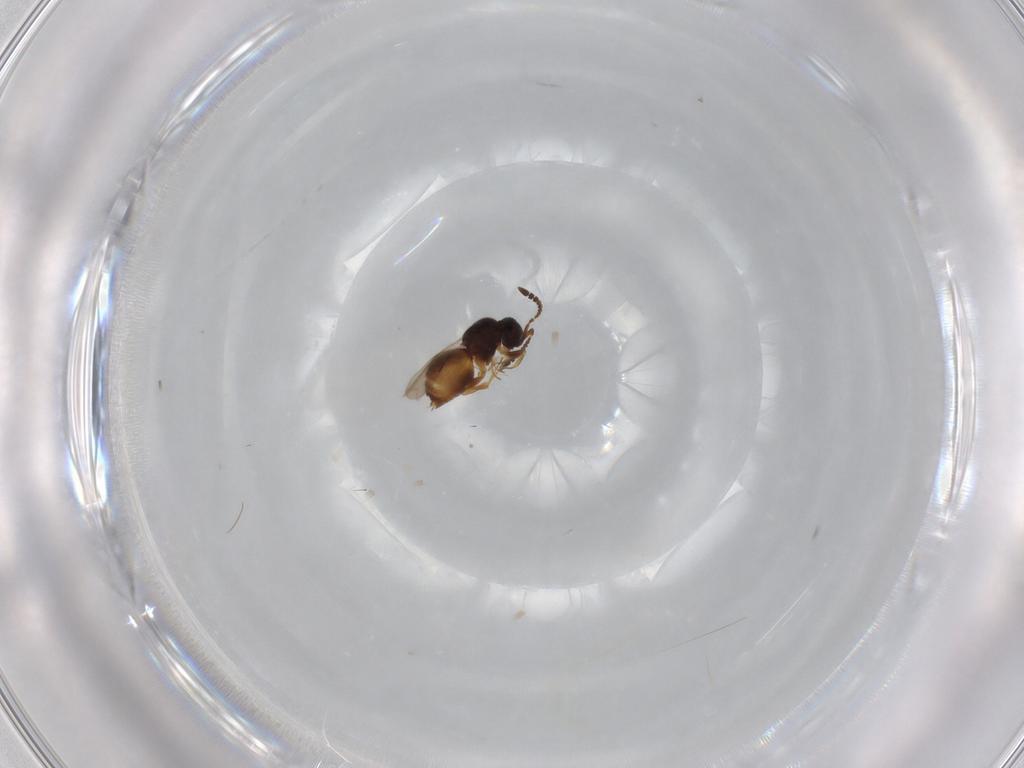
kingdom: Animalia
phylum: Arthropoda
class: Insecta
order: Hymenoptera
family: Ceraphronidae
